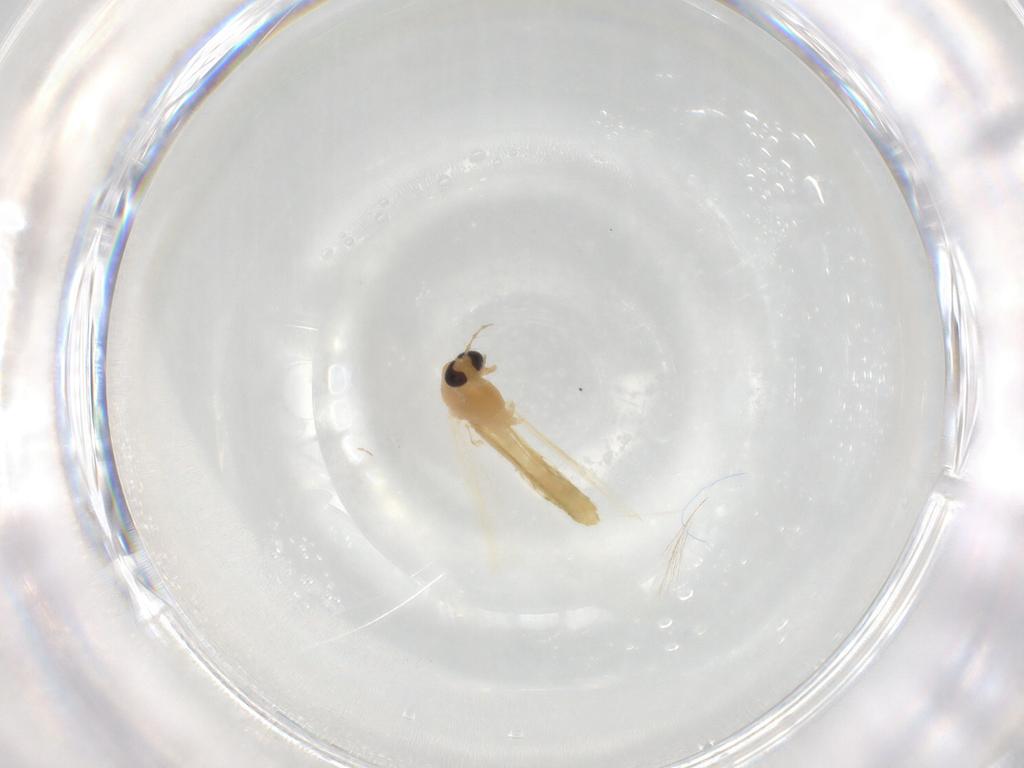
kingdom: Animalia
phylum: Arthropoda
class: Insecta
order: Diptera
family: Chironomidae
